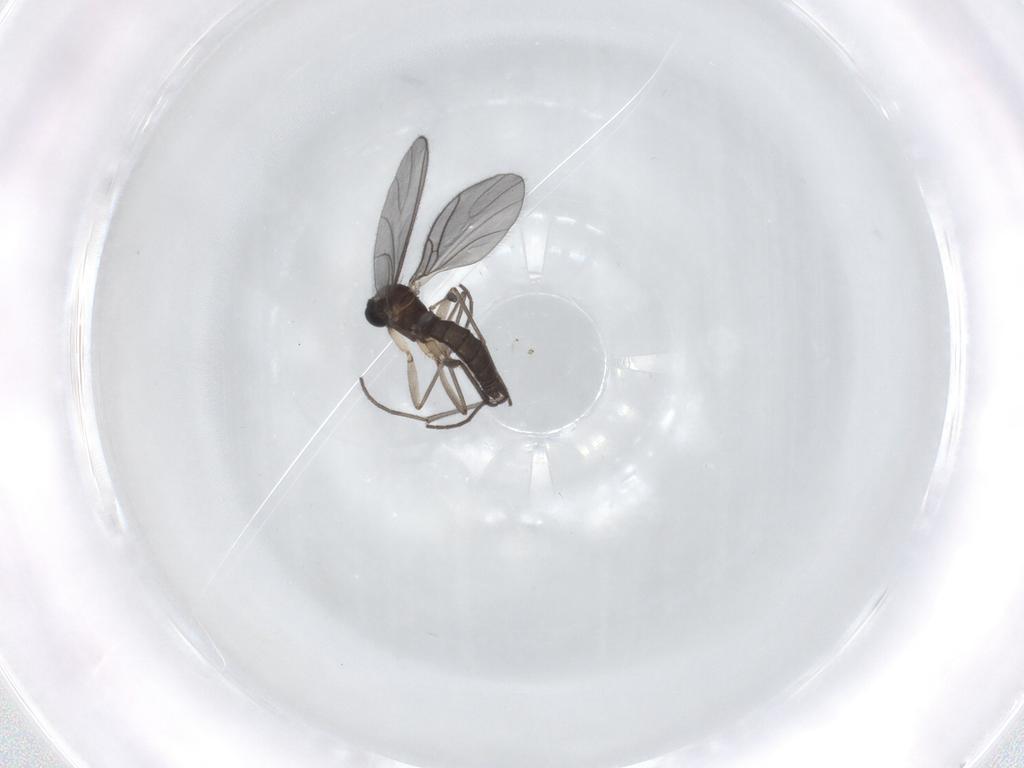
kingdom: Animalia
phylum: Arthropoda
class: Insecta
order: Diptera
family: Sciaridae
